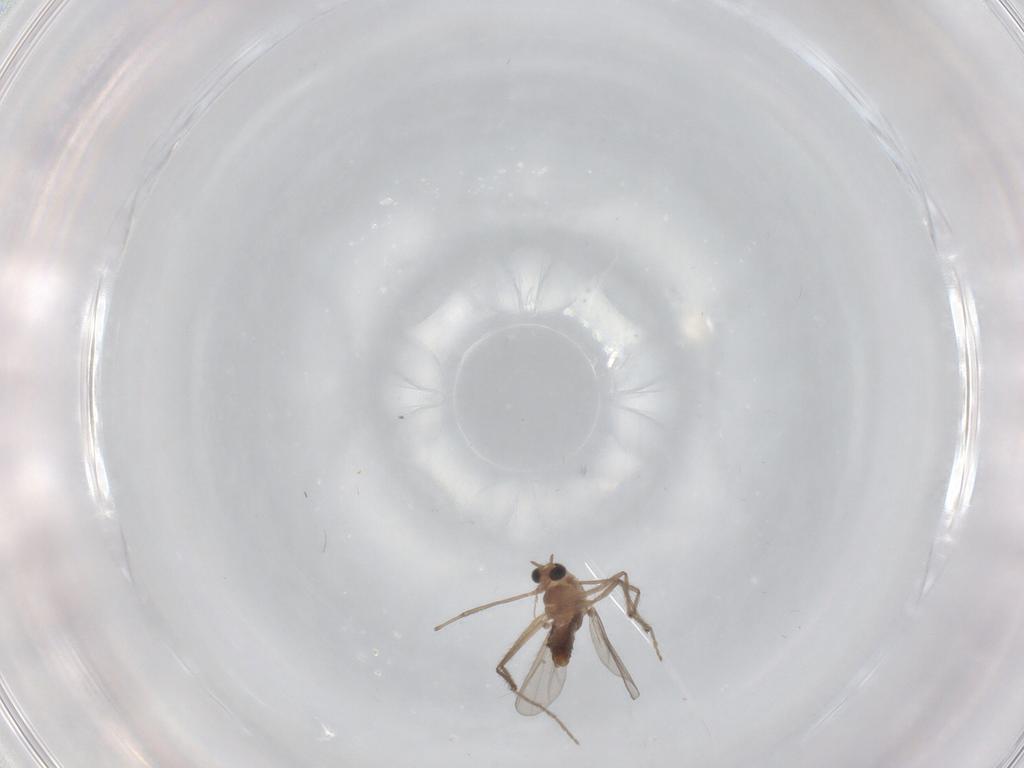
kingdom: Animalia
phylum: Arthropoda
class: Insecta
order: Diptera
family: Chironomidae
